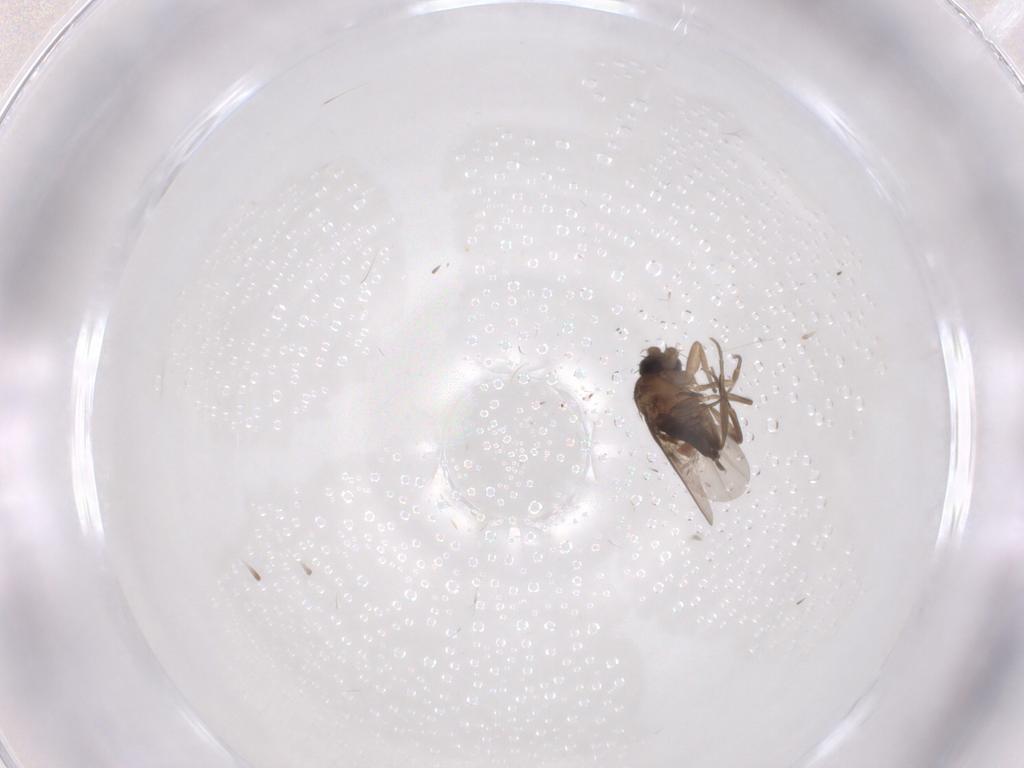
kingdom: Animalia
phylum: Arthropoda
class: Insecta
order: Diptera
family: Phoridae
